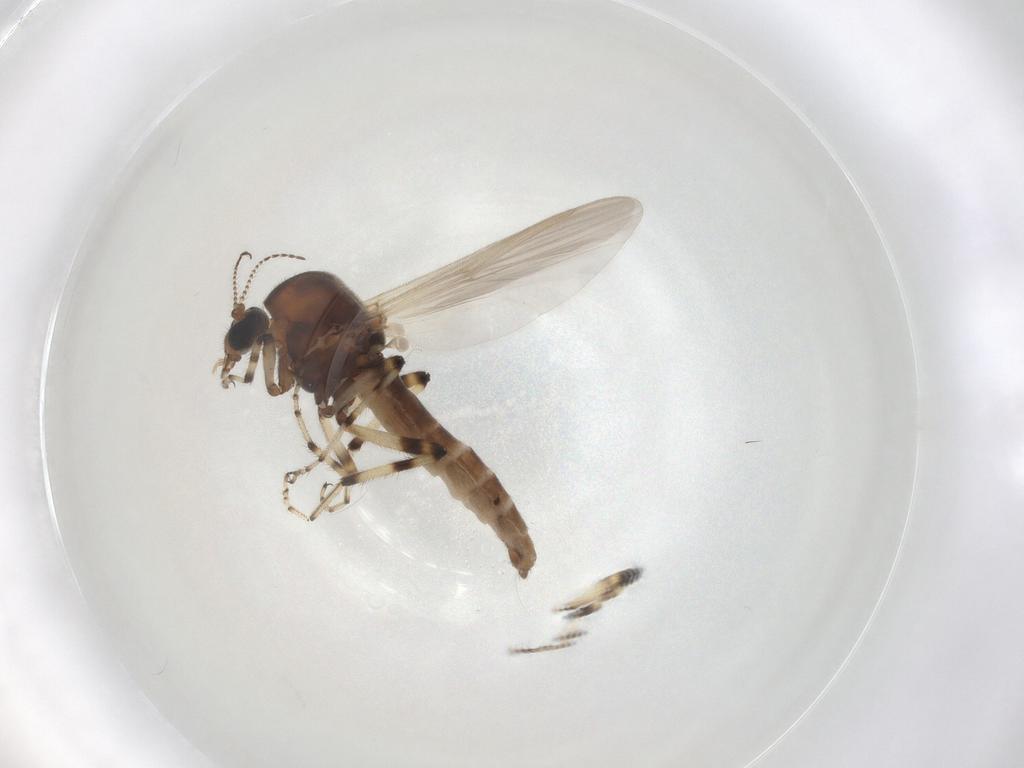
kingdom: Animalia
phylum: Arthropoda
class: Insecta
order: Diptera
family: Ceratopogonidae
